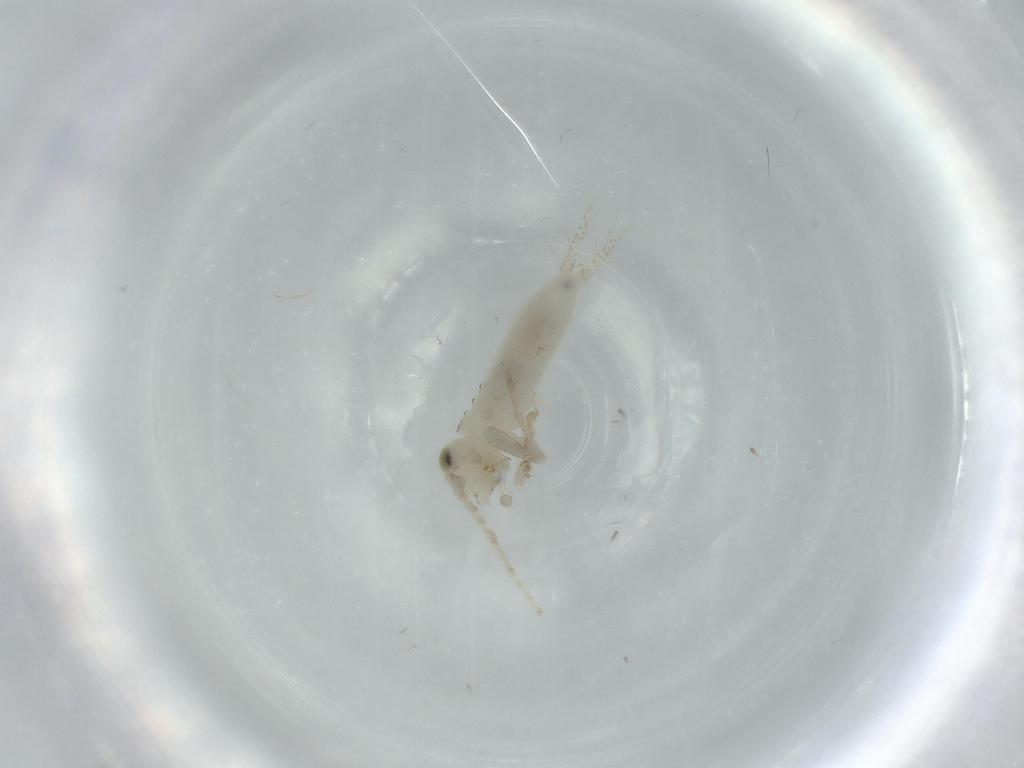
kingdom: Animalia
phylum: Arthropoda
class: Insecta
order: Orthoptera
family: Trigonidiidae
